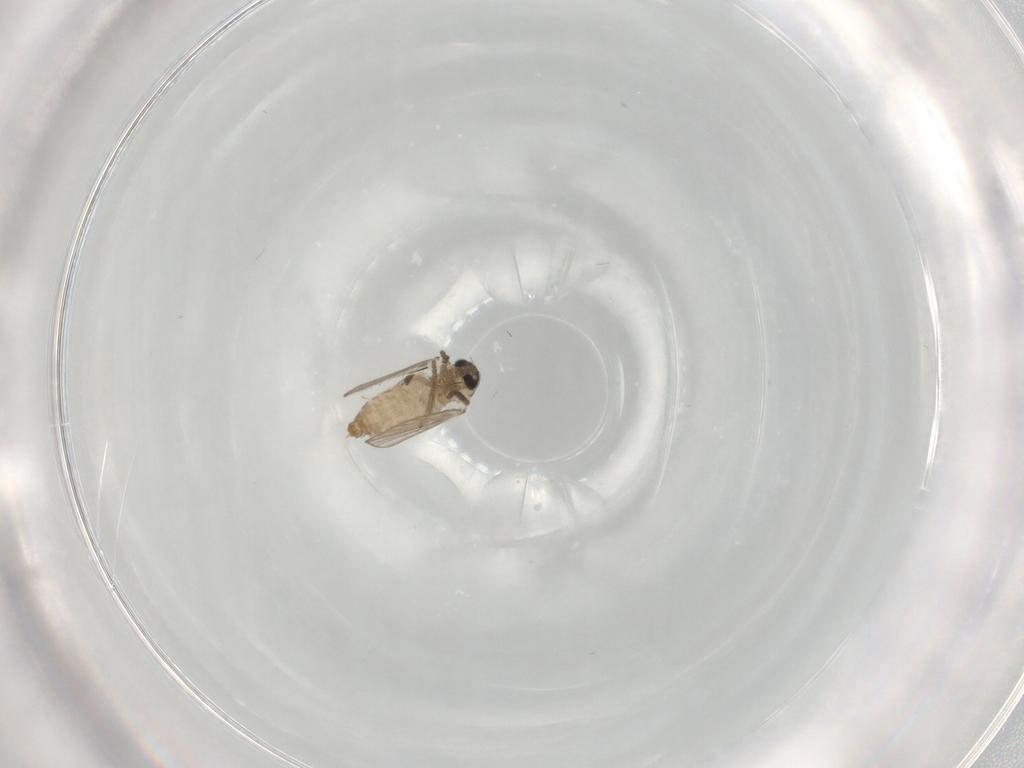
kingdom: Animalia
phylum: Arthropoda
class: Insecta
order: Diptera
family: Psychodidae
